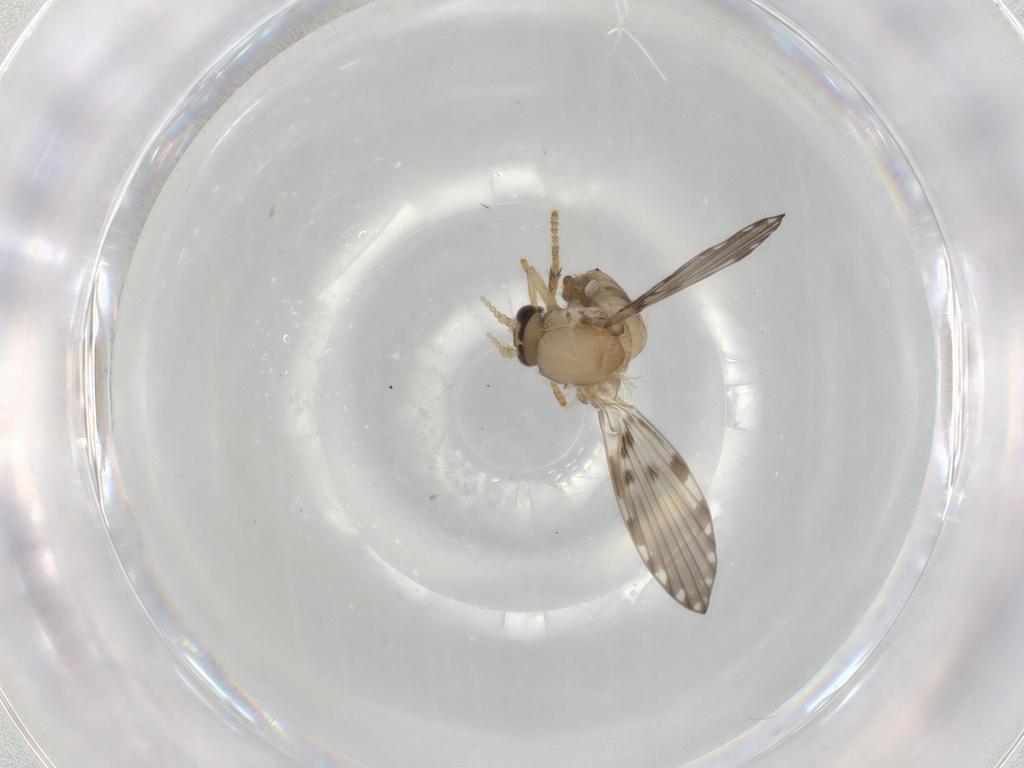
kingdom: Animalia
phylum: Arthropoda
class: Insecta
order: Diptera
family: Psychodidae
